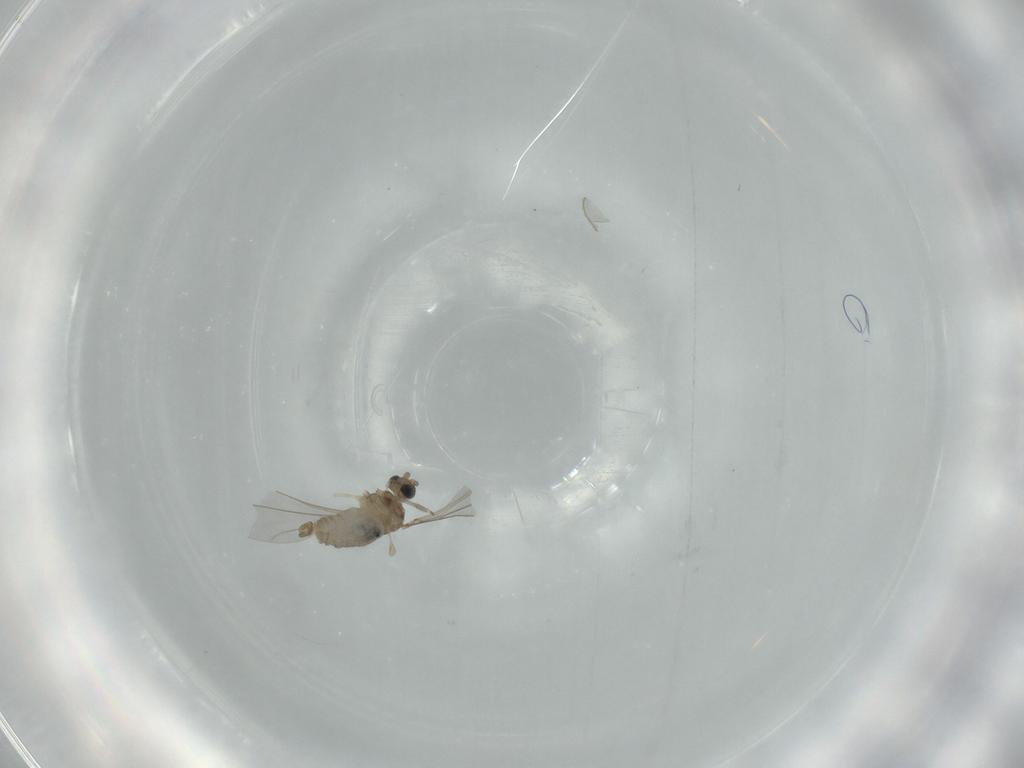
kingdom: Animalia
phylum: Arthropoda
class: Insecta
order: Diptera
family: Cecidomyiidae
